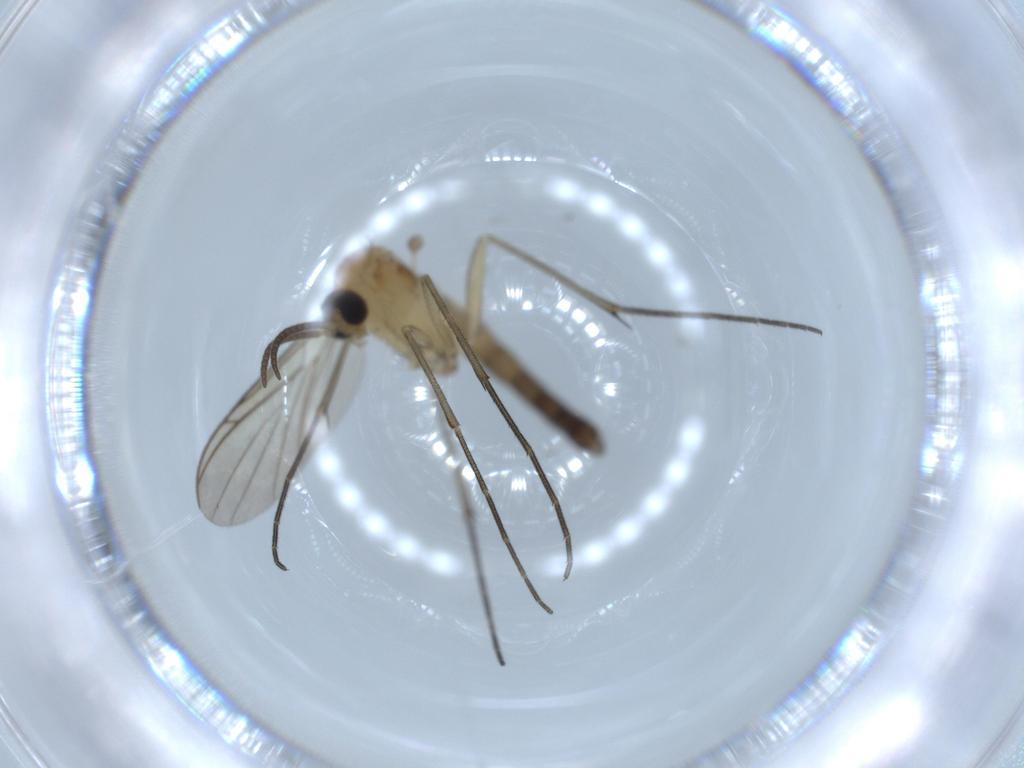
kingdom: Animalia
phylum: Arthropoda
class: Insecta
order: Diptera
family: Keroplatidae
